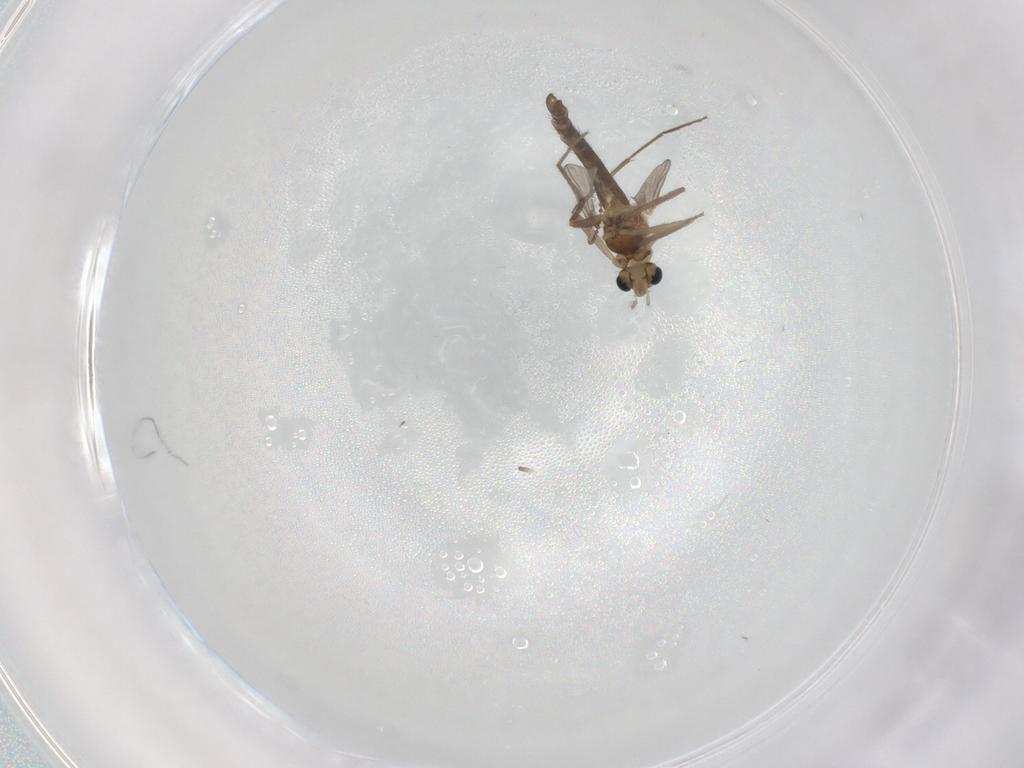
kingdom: Animalia
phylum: Arthropoda
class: Insecta
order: Diptera
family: Chironomidae
